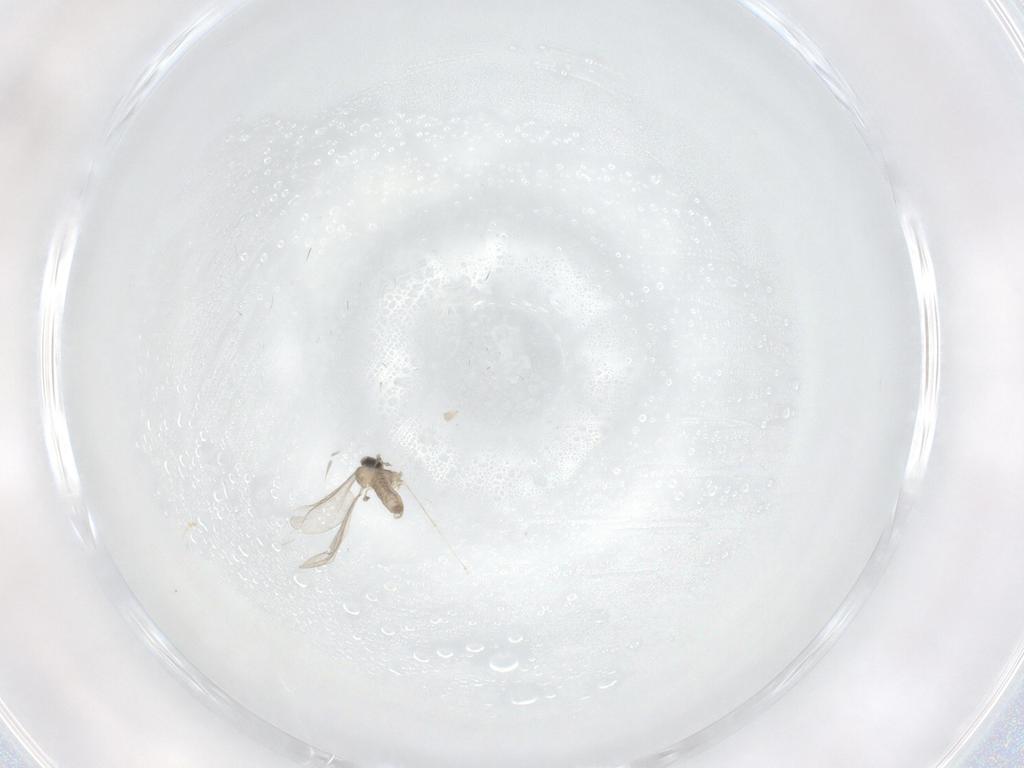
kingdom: Animalia
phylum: Arthropoda
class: Insecta
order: Diptera
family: Cecidomyiidae
